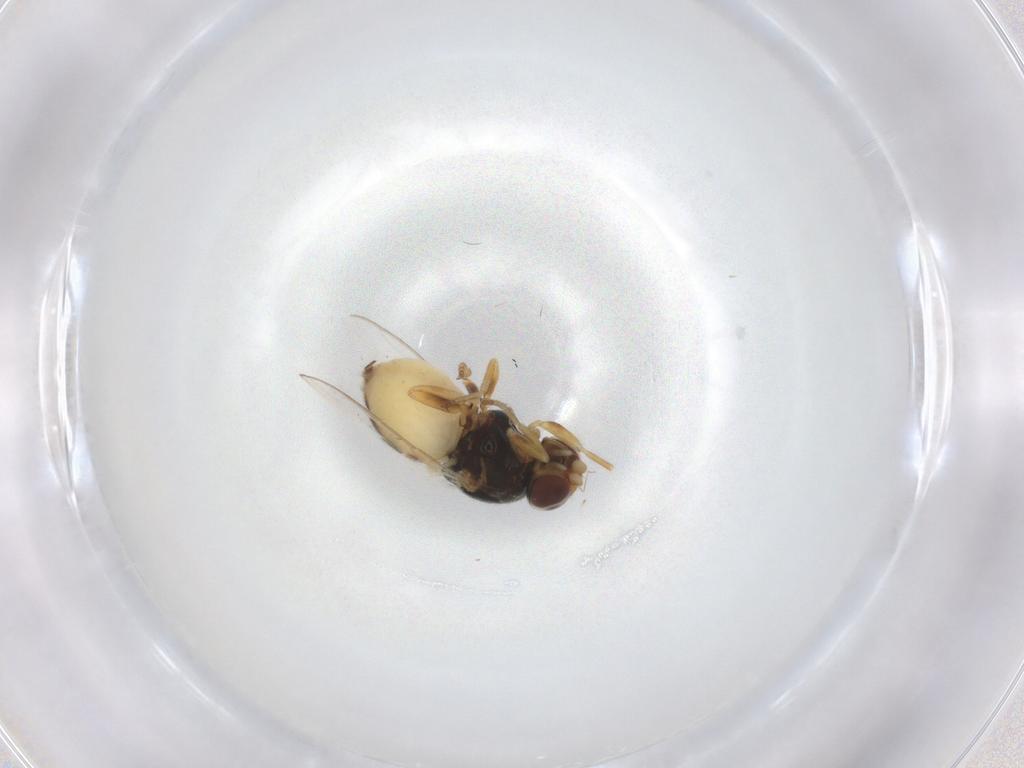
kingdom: Animalia
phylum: Arthropoda
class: Insecta
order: Diptera
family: Chloropidae
